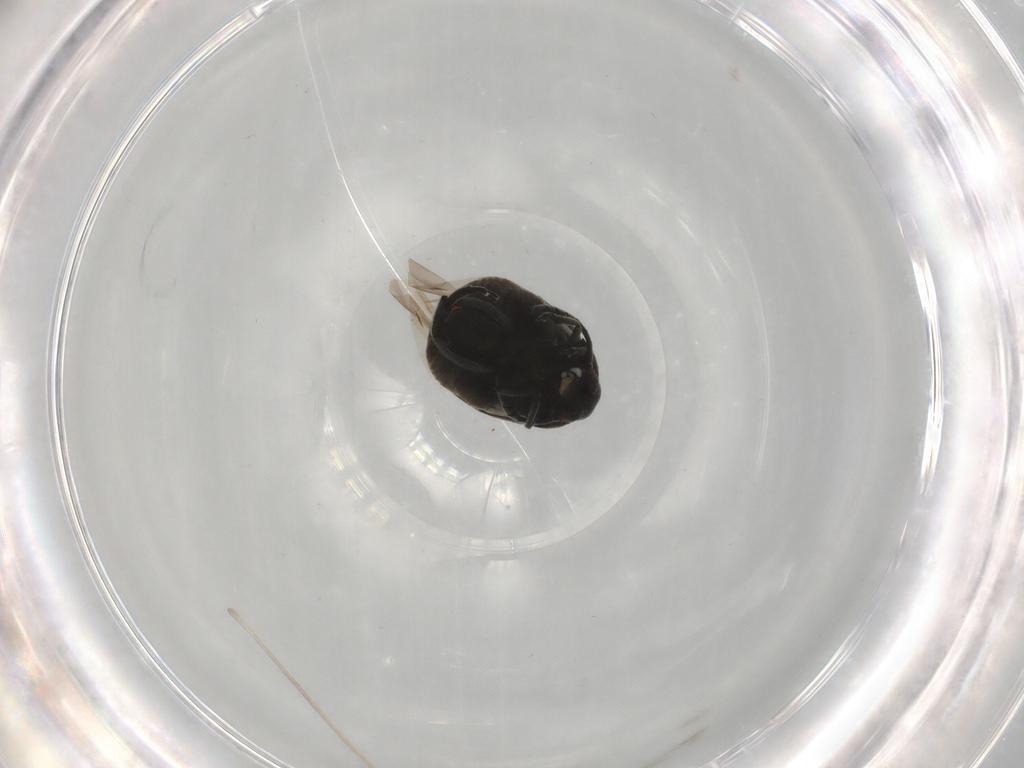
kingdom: Animalia
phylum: Arthropoda
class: Insecta
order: Coleoptera
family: Chrysomelidae
